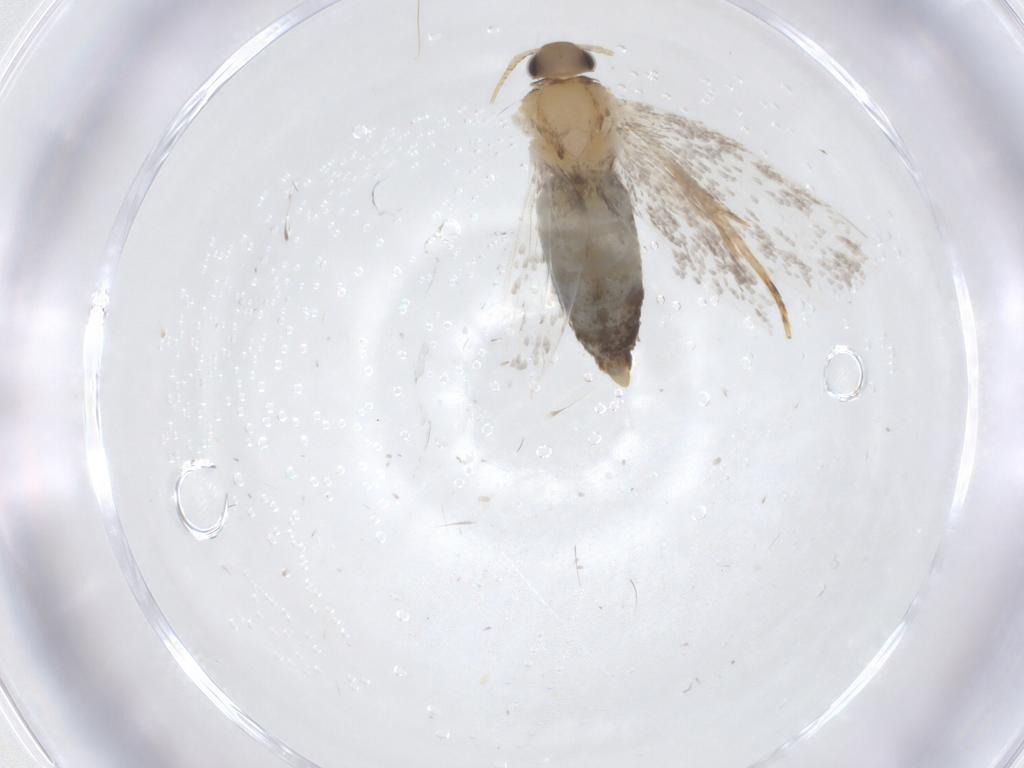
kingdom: Animalia
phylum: Arthropoda
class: Insecta
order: Lepidoptera
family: Oecophoridae
